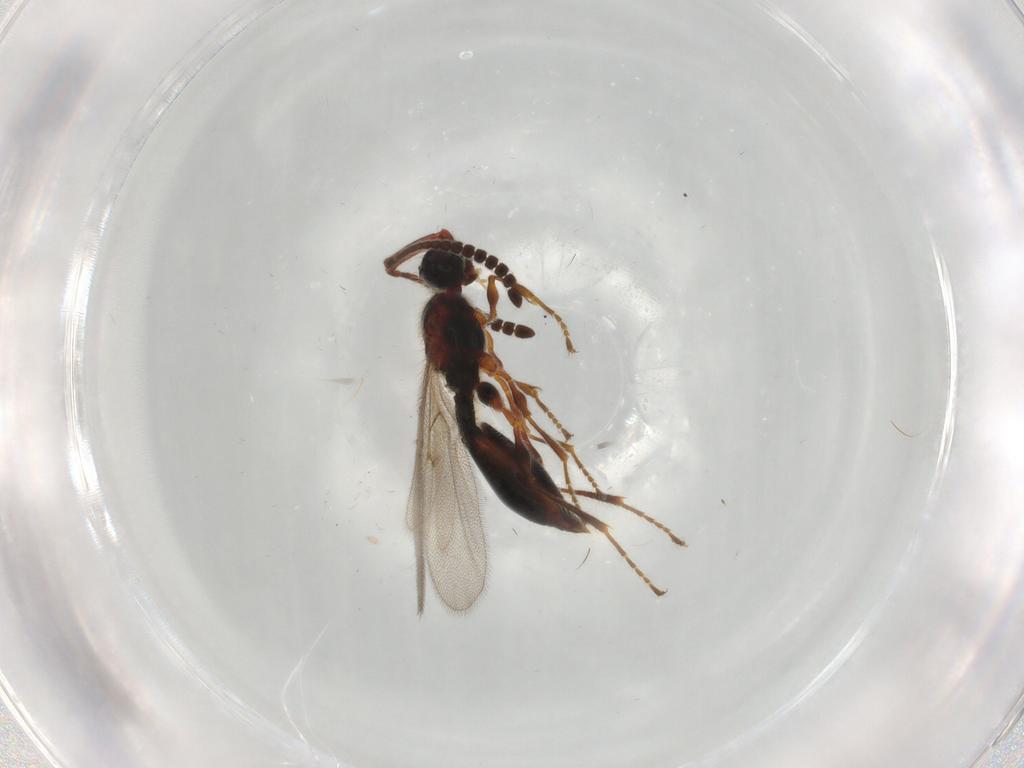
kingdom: Animalia
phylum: Arthropoda
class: Insecta
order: Hymenoptera
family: Diapriidae
